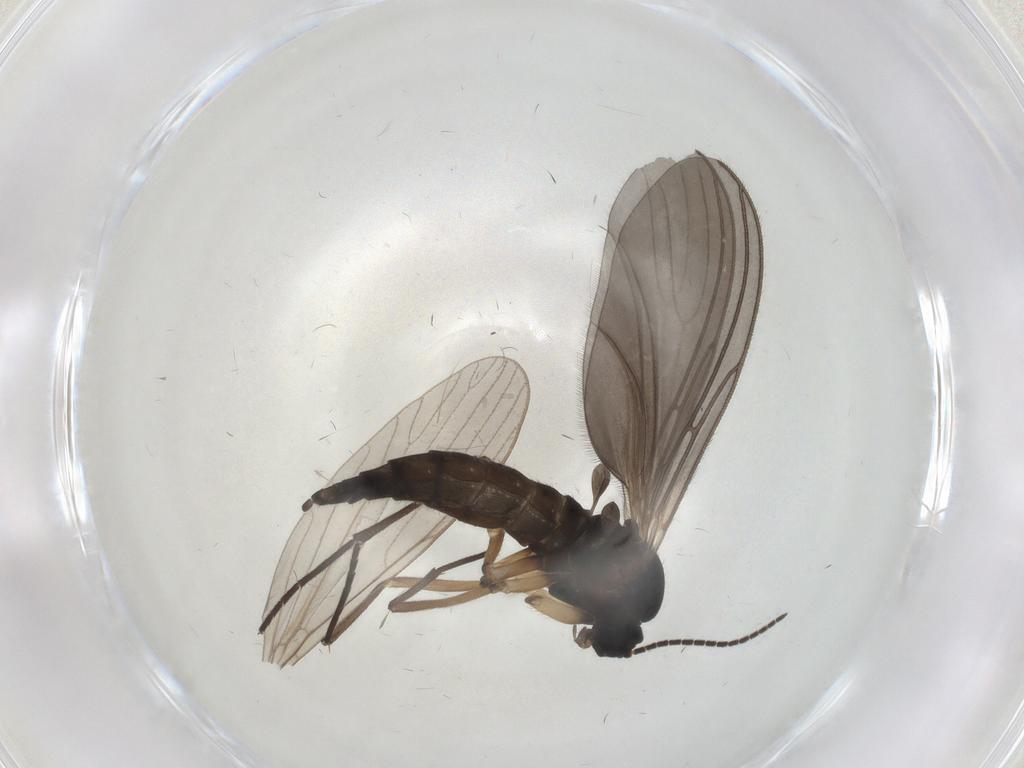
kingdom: Animalia
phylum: Arthropoda
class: Insecta
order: Diptera
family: Sciaridae
